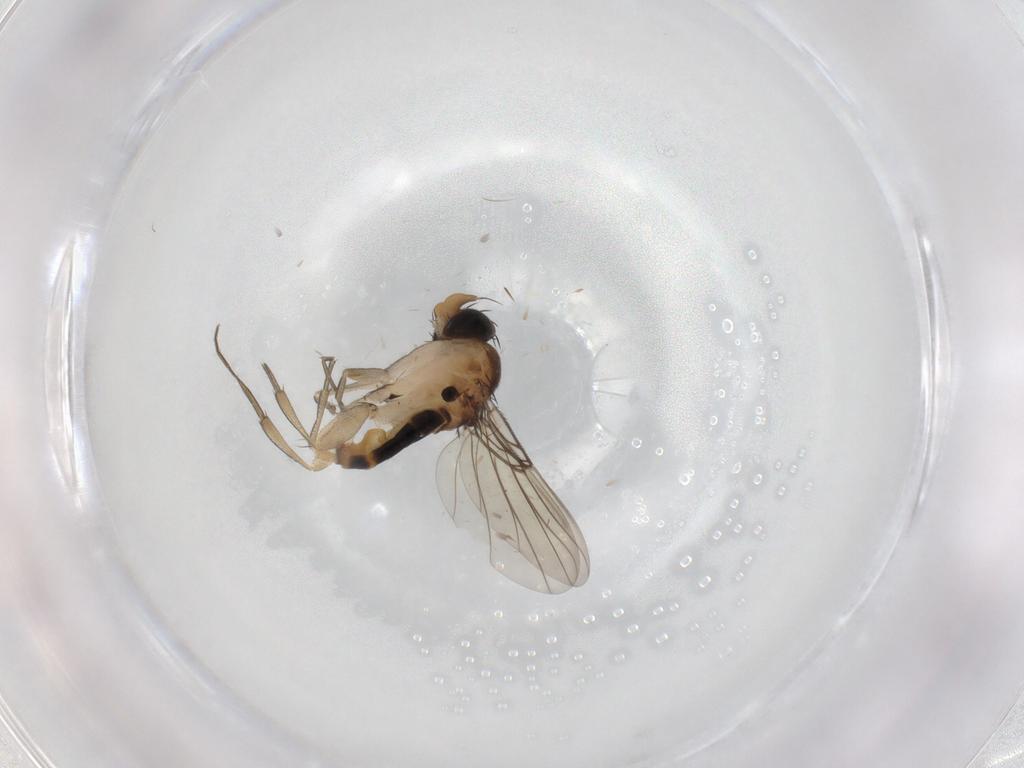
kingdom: Animalia
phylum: Arthropoda
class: Insecta
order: Diptera
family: Phoridae
